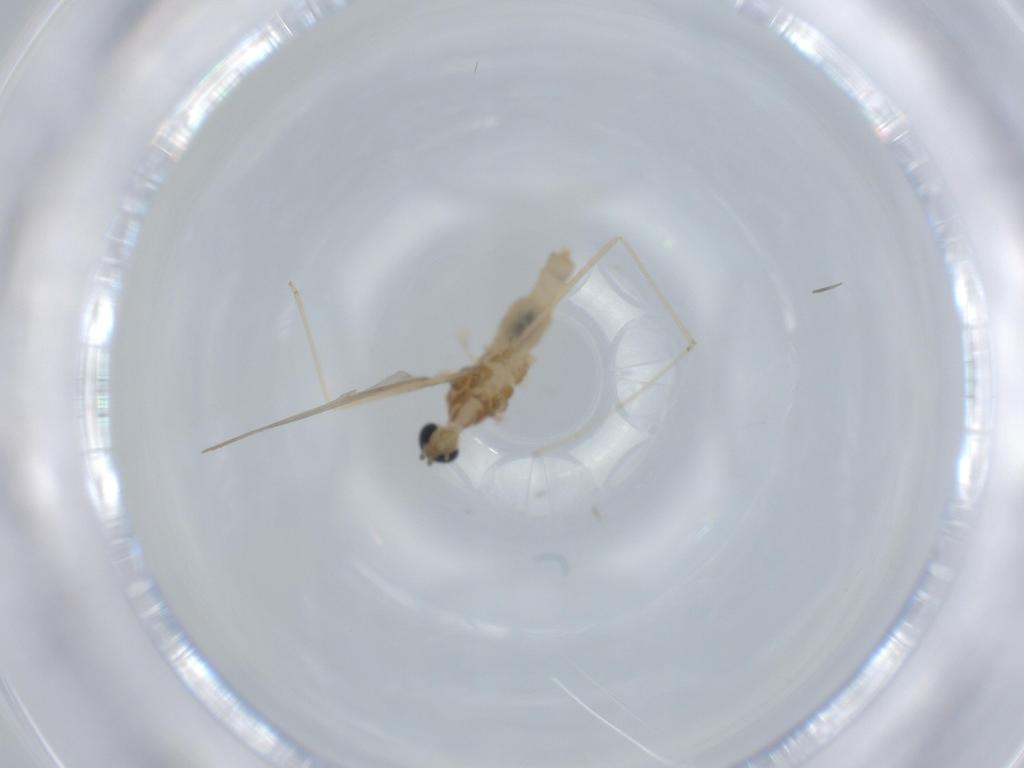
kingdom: Animalia
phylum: Arthropoda
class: Insecta
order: Diptera
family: Cecidomyiidae
